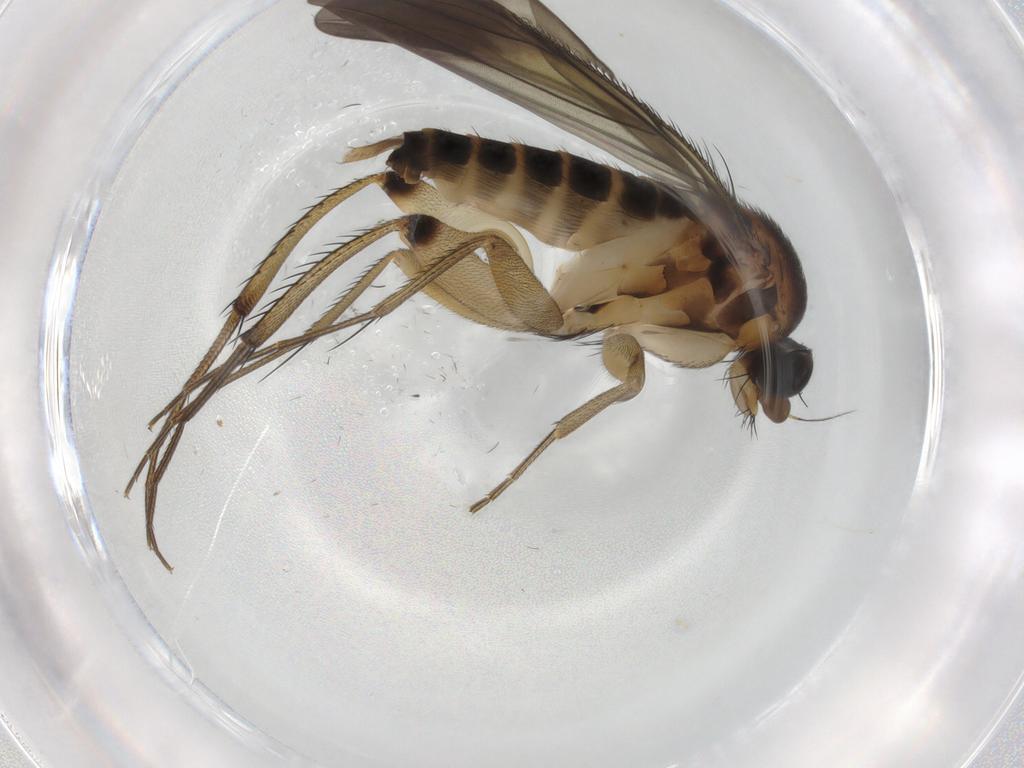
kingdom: Animalia
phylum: Arthropoda
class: Insecta
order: Diptera
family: Phoridae
